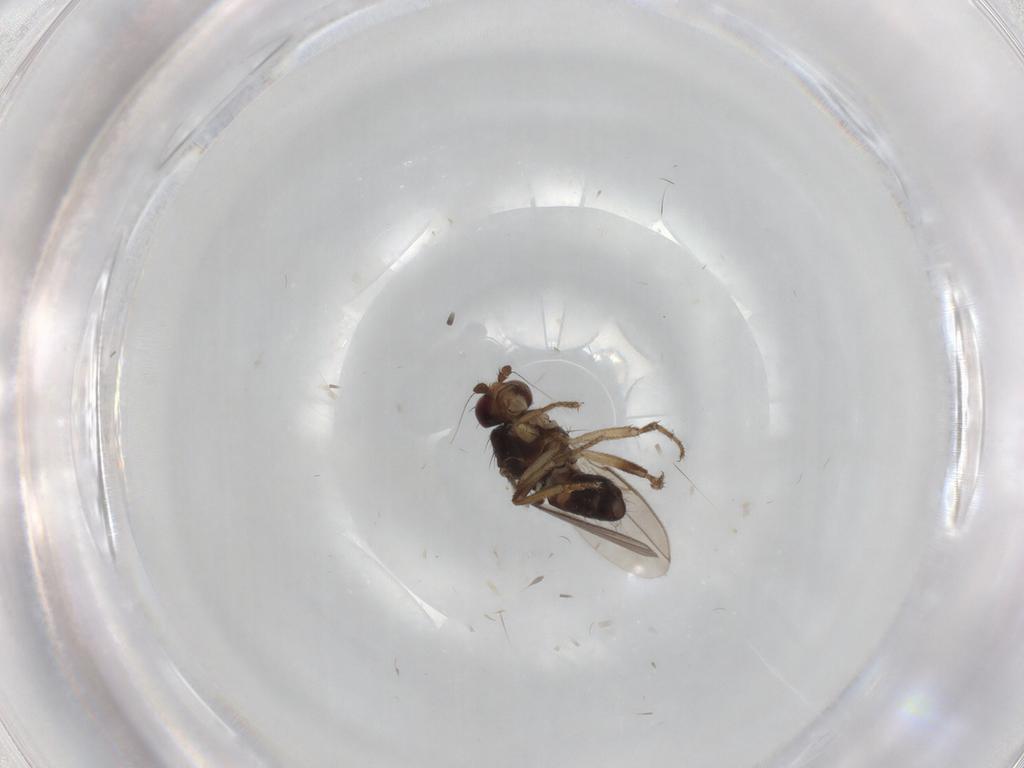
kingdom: Animalia
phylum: Arthropoda
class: Insecta
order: Diptera
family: Sphaeroceridae
